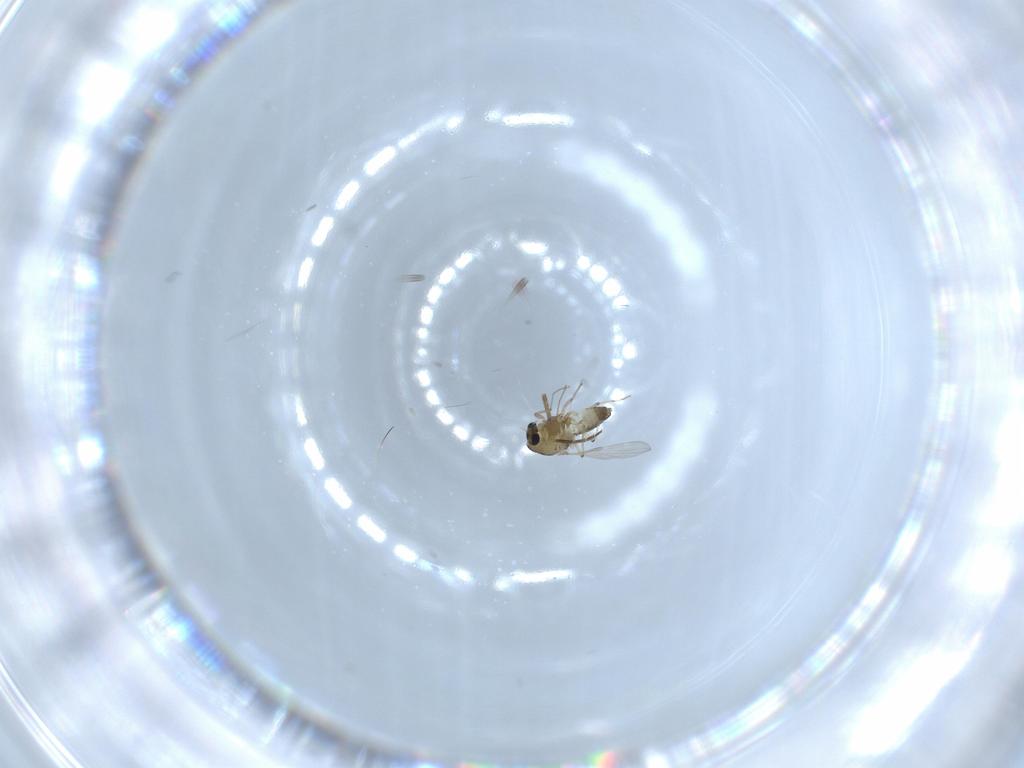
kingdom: Animalia
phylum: Arthropoda
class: Insecta
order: Diptera
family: Chironomidae
